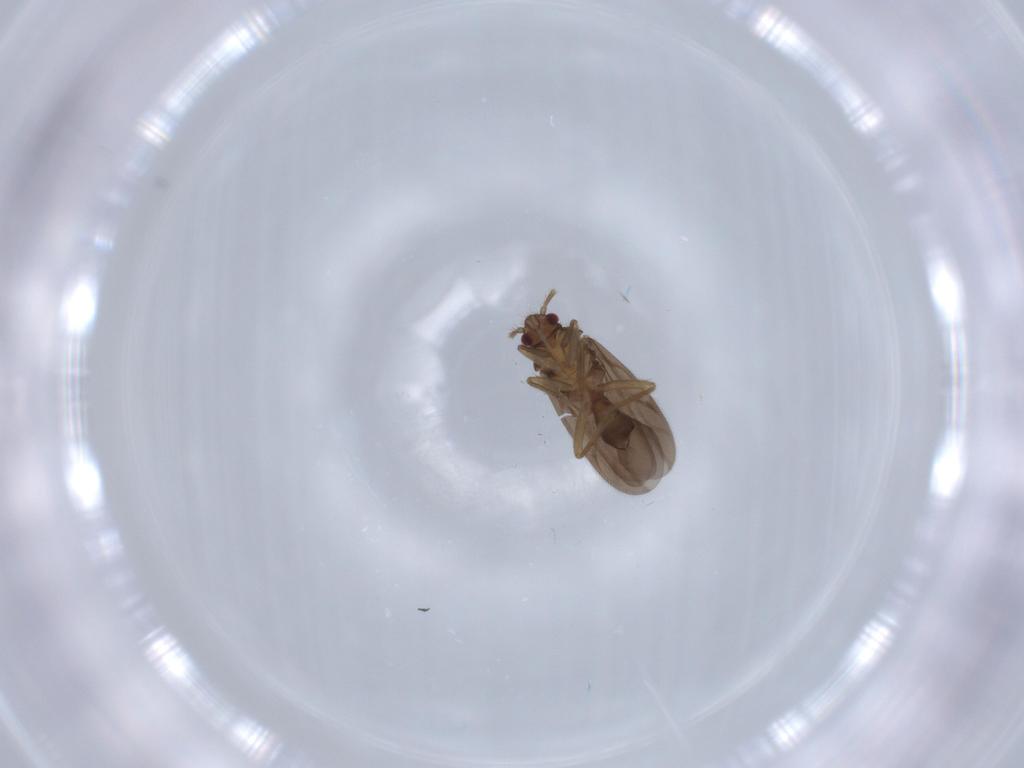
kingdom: Animalia
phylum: Arthropoda
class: Insecta
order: Hemiptera
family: Ceratocombidae
